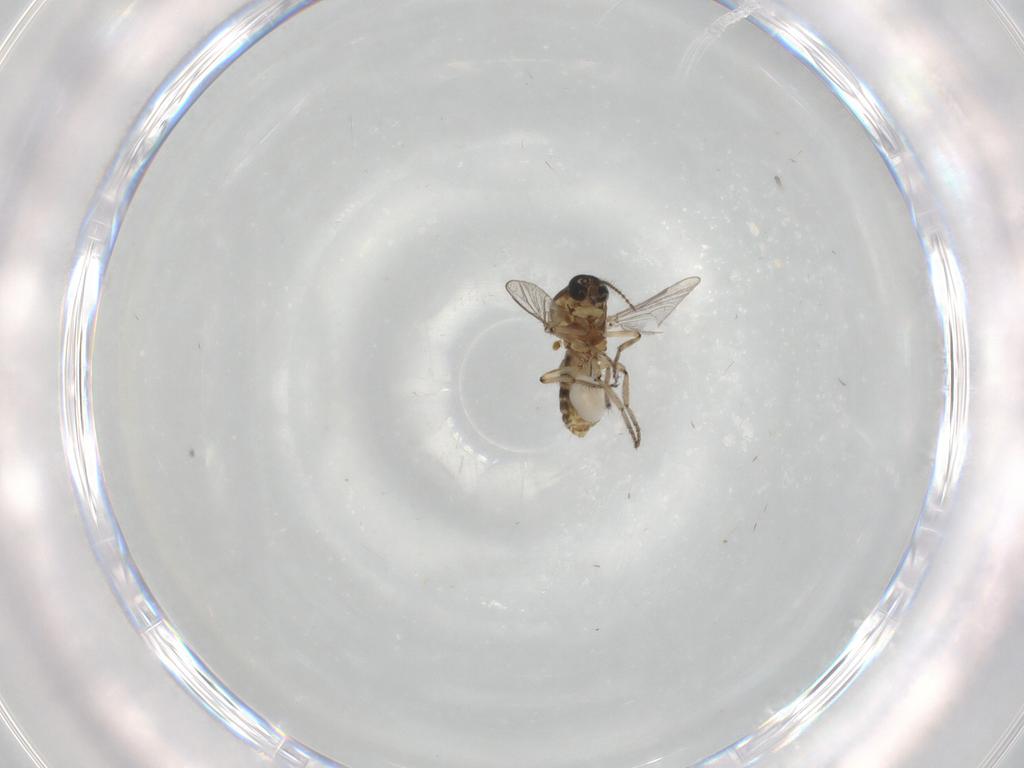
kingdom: Animalia
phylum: Arthropoda
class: Insecta
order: Diptera
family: Ceratopogonidae
